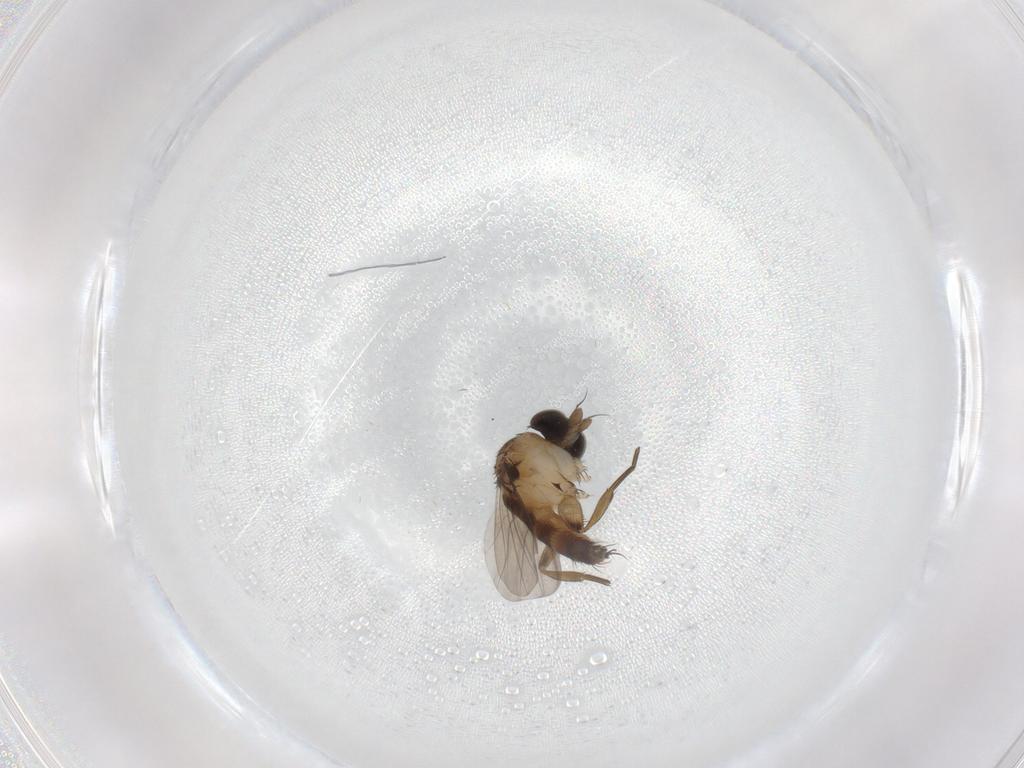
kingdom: Animalia
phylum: Arthropoda
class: Insecta
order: Diptera
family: Phoridae
